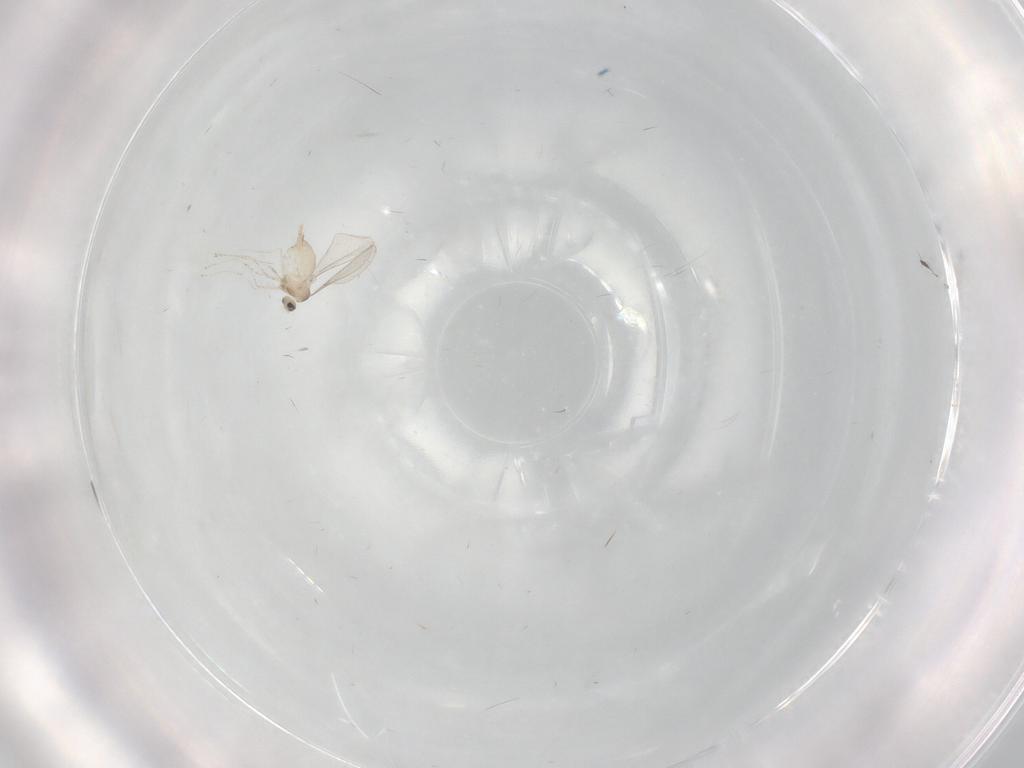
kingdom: Animalia
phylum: Arthropoda
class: Insecta
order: Diptera
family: Cecidomyiidae
